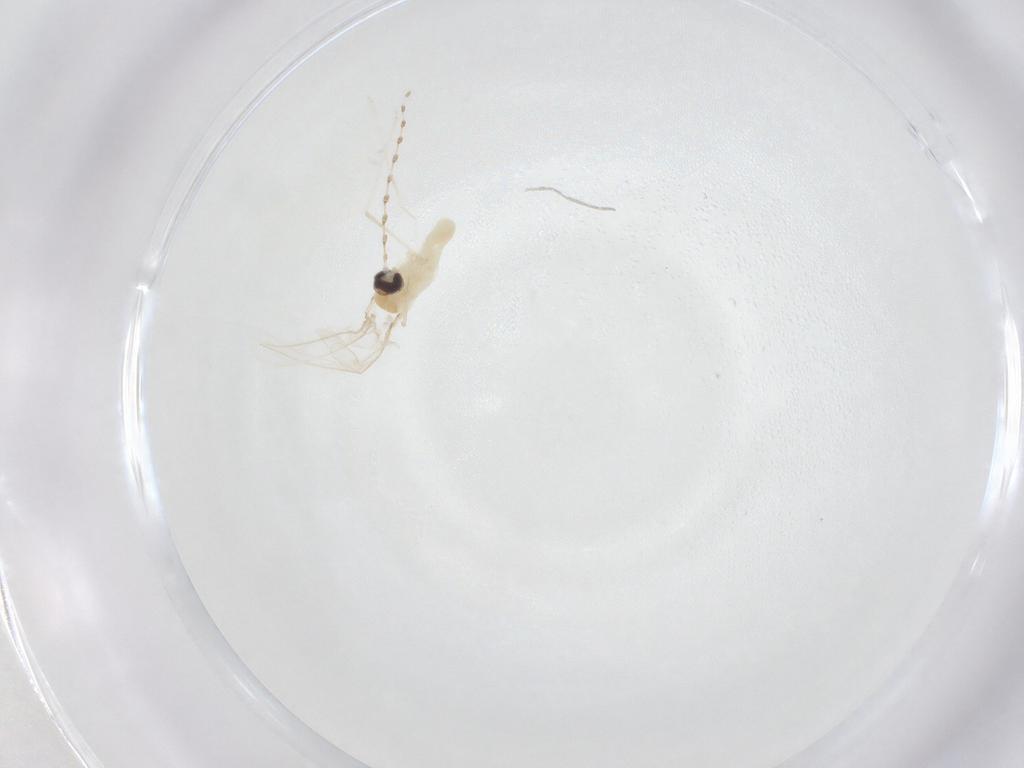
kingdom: Animalia
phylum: Arthropoda
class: Insecta
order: Diptera
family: Cecidomyiidae
